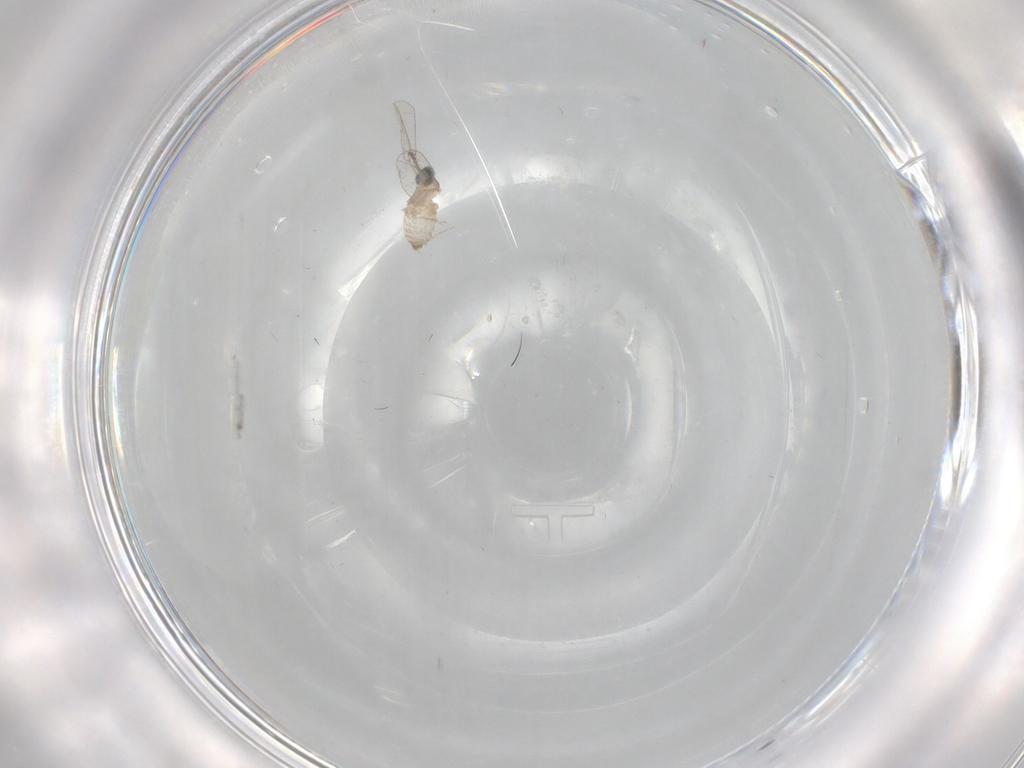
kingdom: Animalia
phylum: Arthropoda
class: Insecta
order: Diptera
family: Cecidomyiidae
